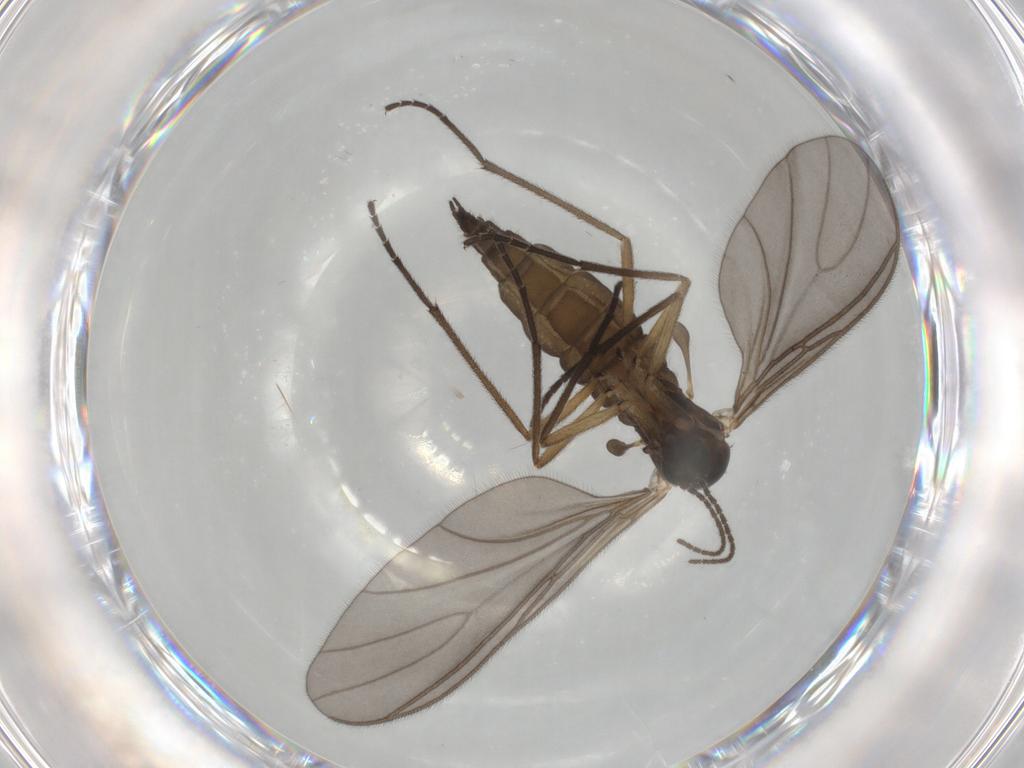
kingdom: Animalia
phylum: Arthropoda
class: Insecta
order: Diptera
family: Sciaridae
